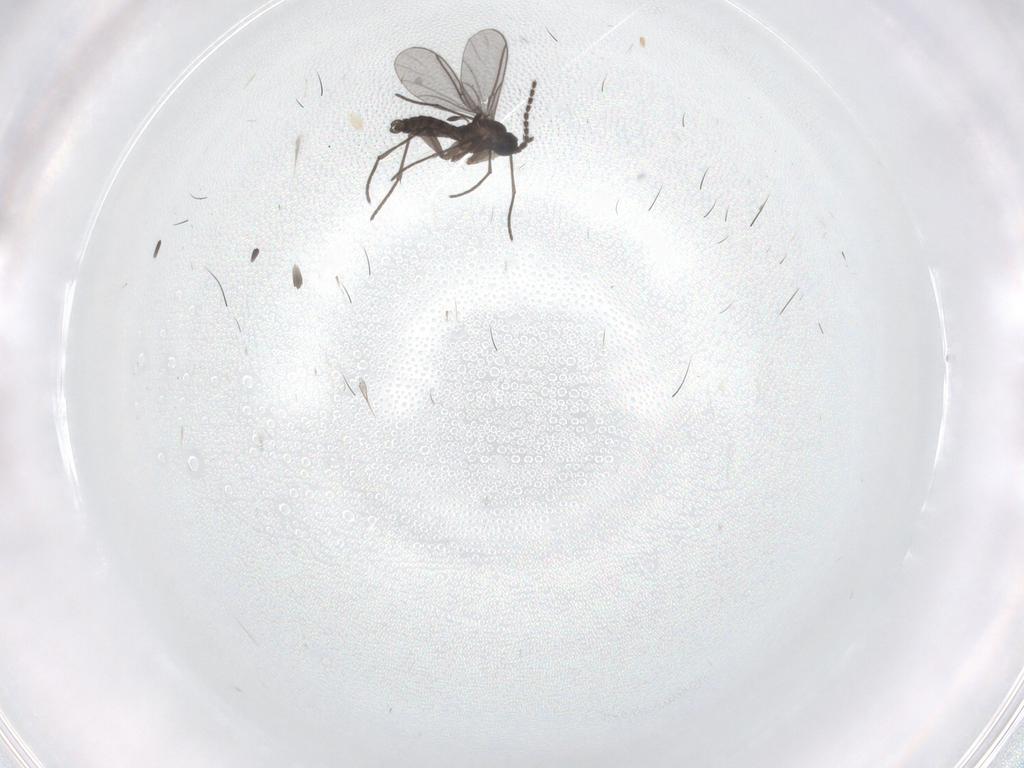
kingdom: Animalia
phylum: Arthropoda
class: Insecta
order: Diptera
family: Cecidomyiidae
